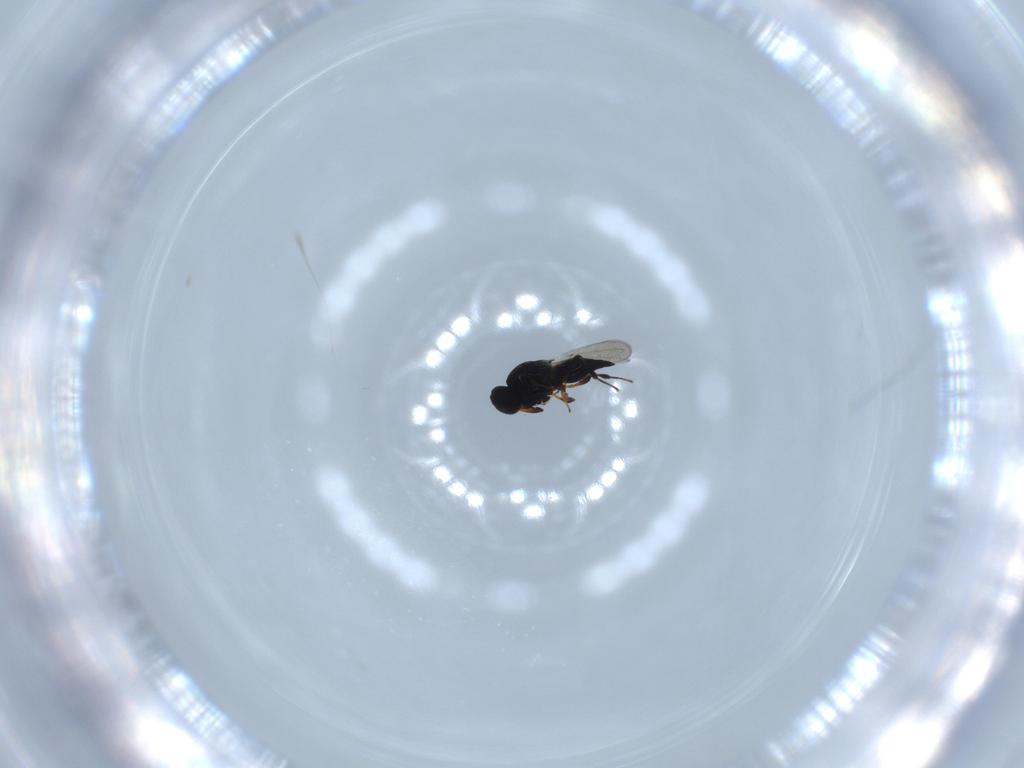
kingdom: Animalia
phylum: Arthropoda
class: Insecta
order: Hymenoptera
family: Platygastridae
